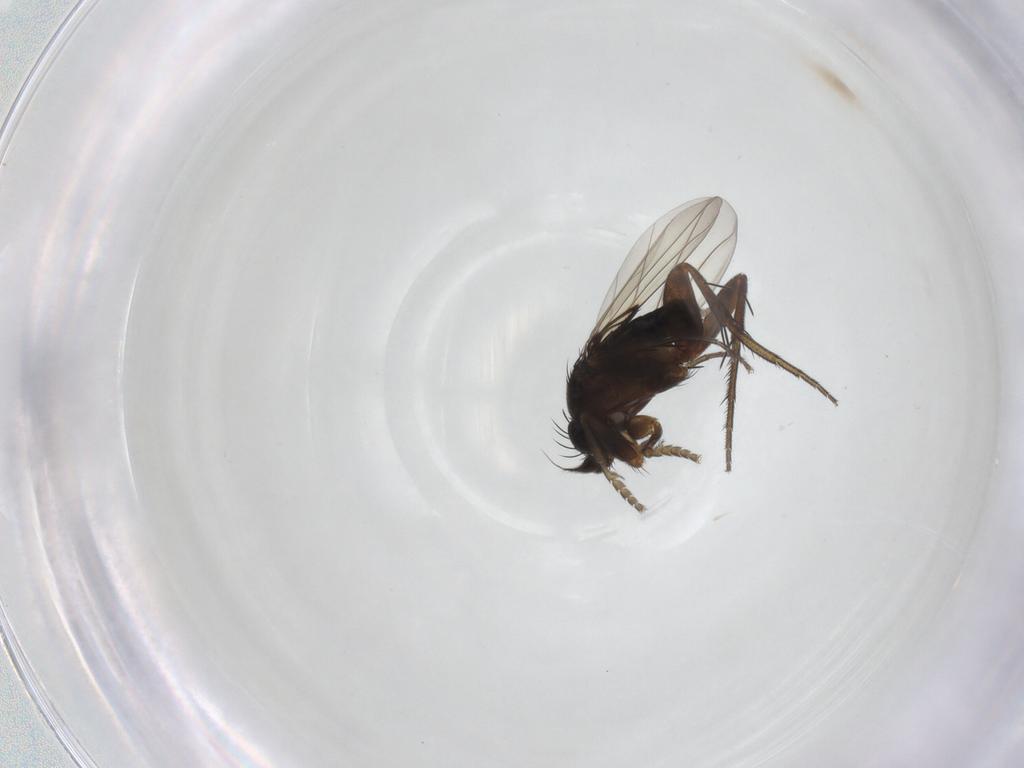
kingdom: Animalia
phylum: Arthropoda
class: Insecta
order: Diptera
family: Phoridae
